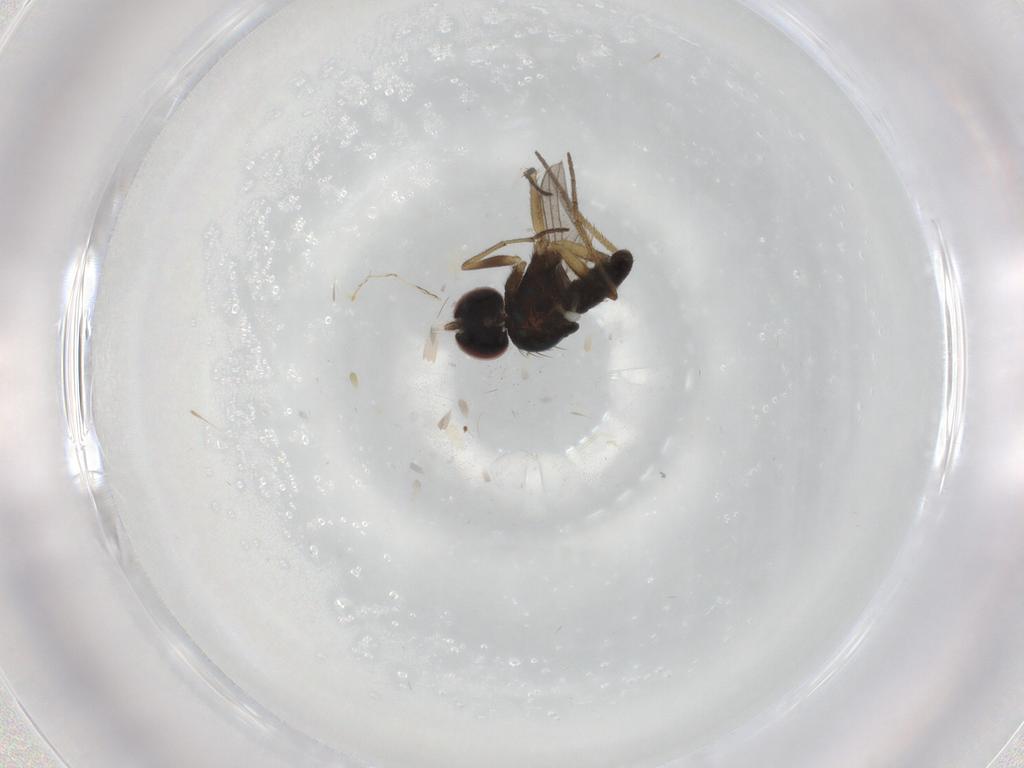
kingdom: Animalia
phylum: Arthropoda
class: Insecta
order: Diptera
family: Dolichopodidae
